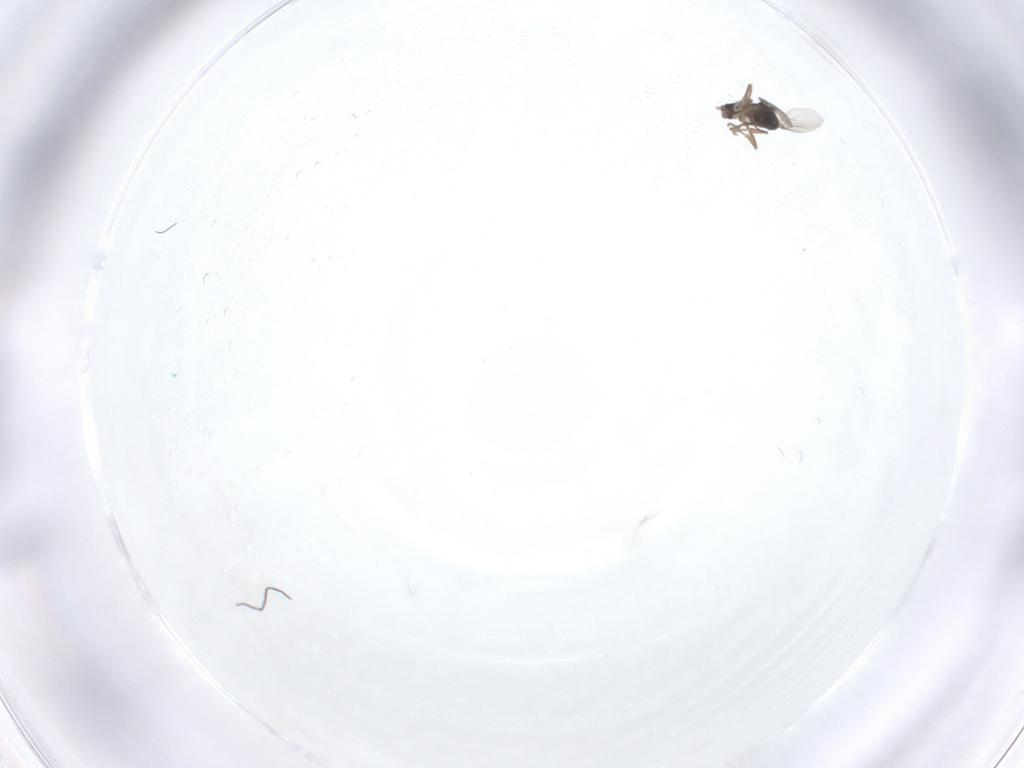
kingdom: Animalia
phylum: Arthropoda
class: Insecta
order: Diptera
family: Phoridae
